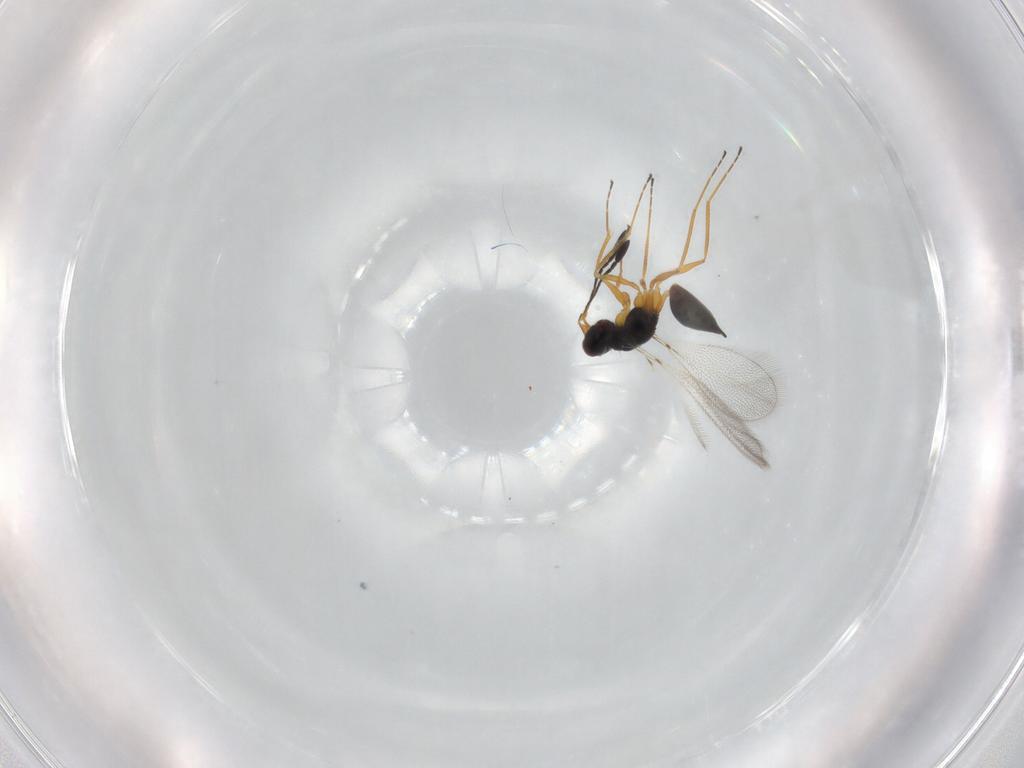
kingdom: Animalia
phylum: Arthropoda
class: Insecta
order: Hymenoptera
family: Mymaridae
